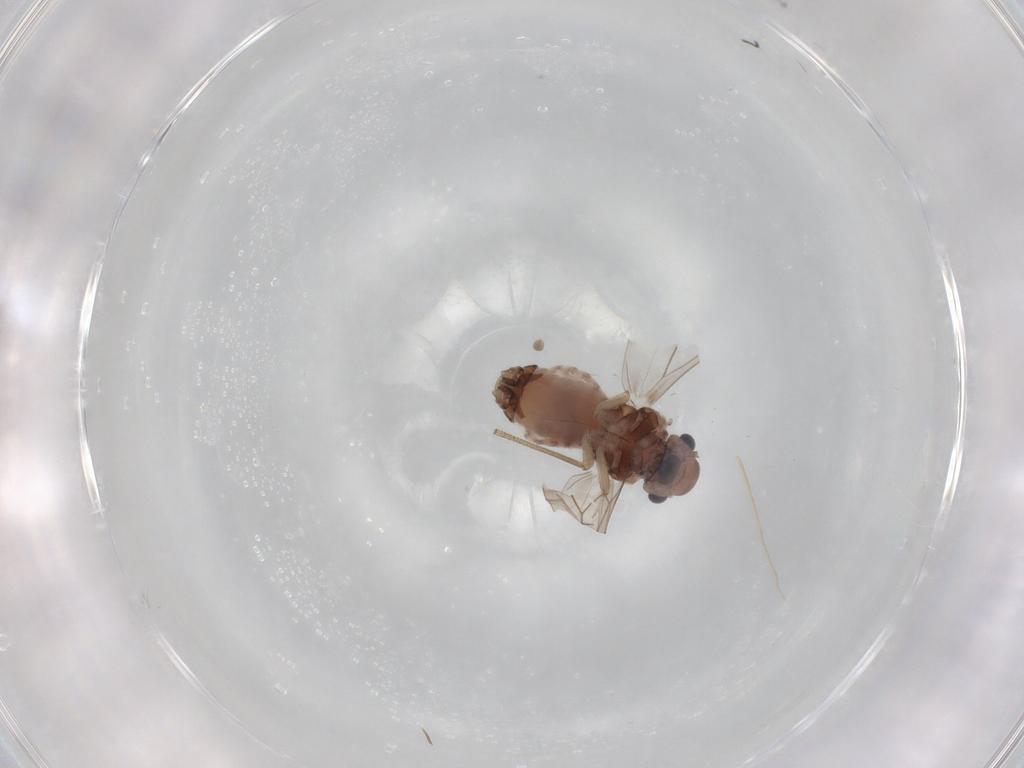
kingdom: Animalia
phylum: Arthropoda
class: Insecta
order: Psocodea
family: Peripsocidae
